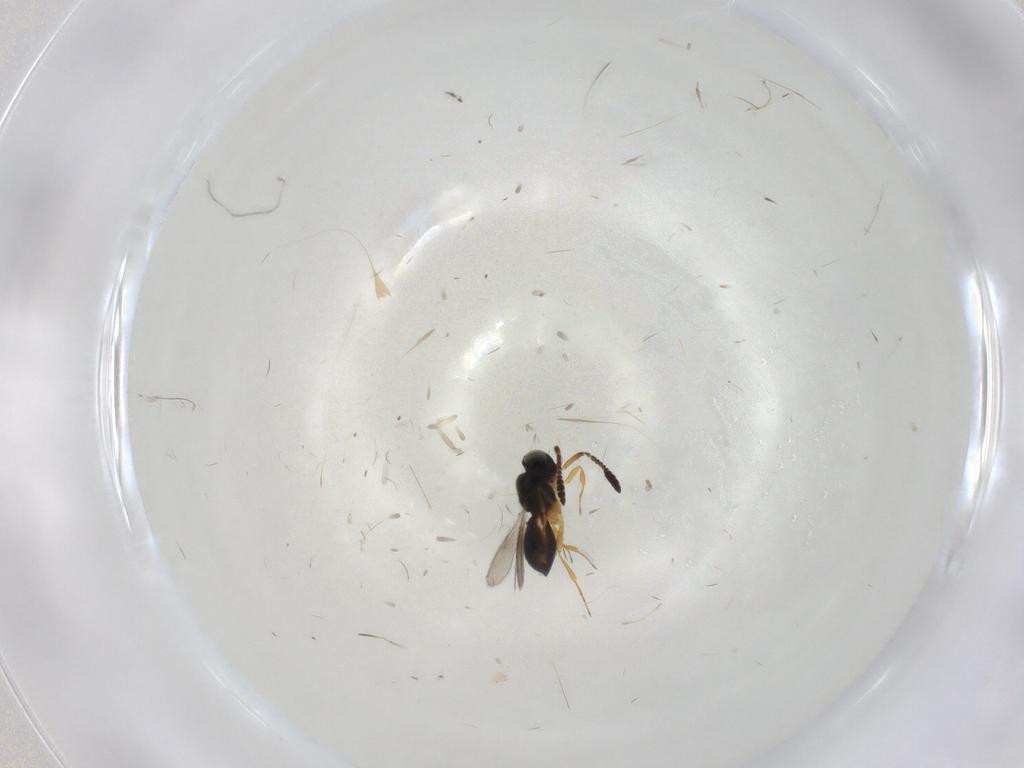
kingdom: Animalia
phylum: Arthropoda
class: Insecta
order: Hymenoptera
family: Scelionidae
